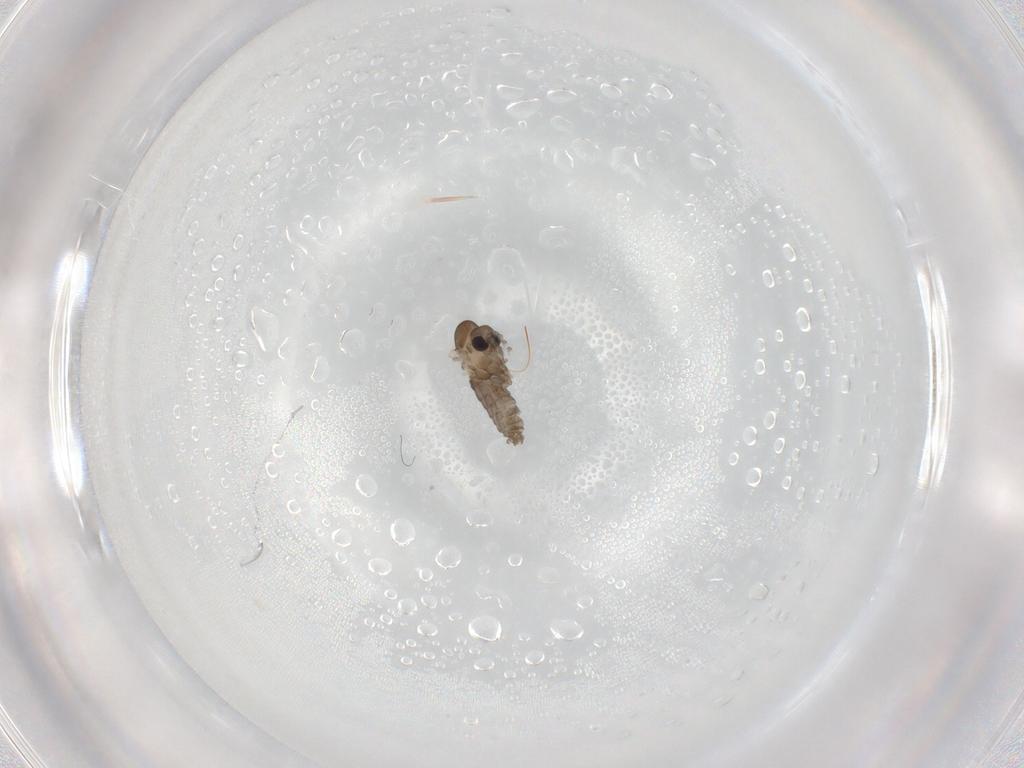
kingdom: Animalia
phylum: Arthropoda
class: Insecta
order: Diptera
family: Psychodidae
